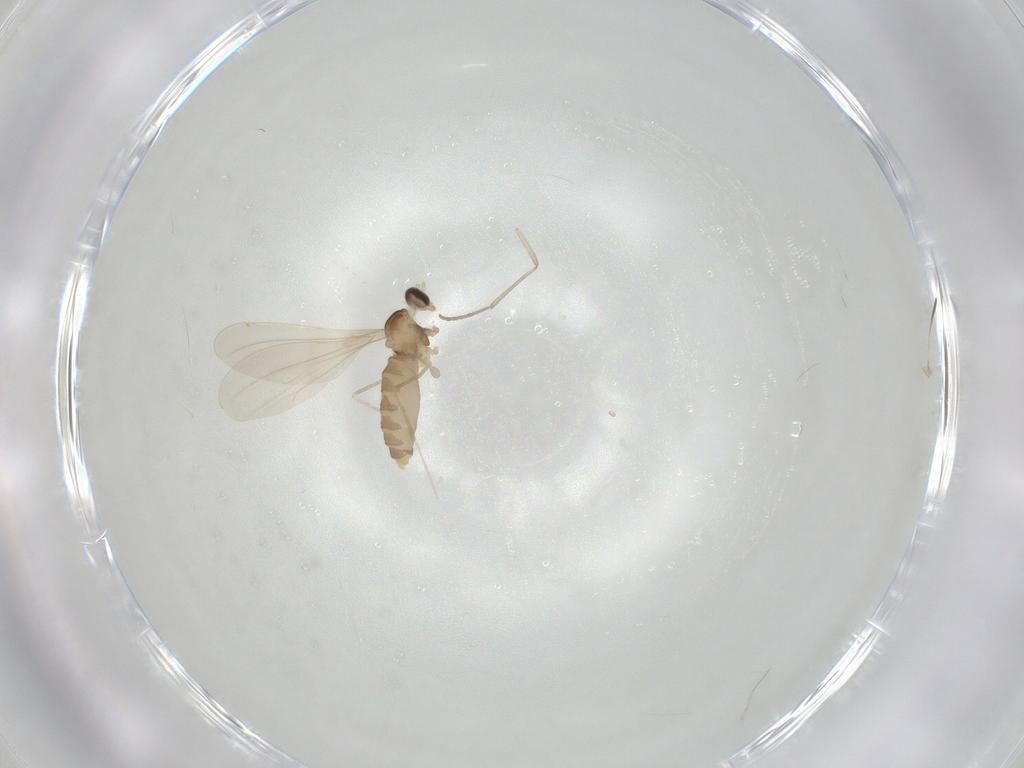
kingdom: Animalia
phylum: Arthropoda
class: Insecta
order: Diptera
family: Cecidomyiidae
